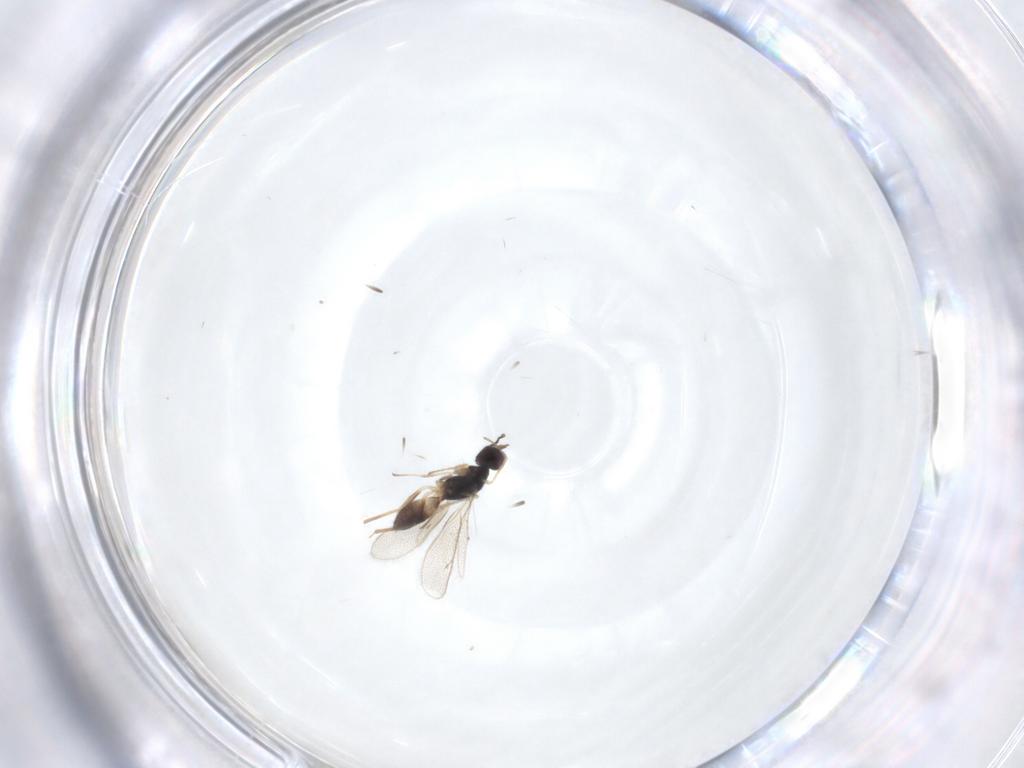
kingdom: Animalia
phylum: Arthropoda
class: Insecta
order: Hymenoptera
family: Eulophidae
